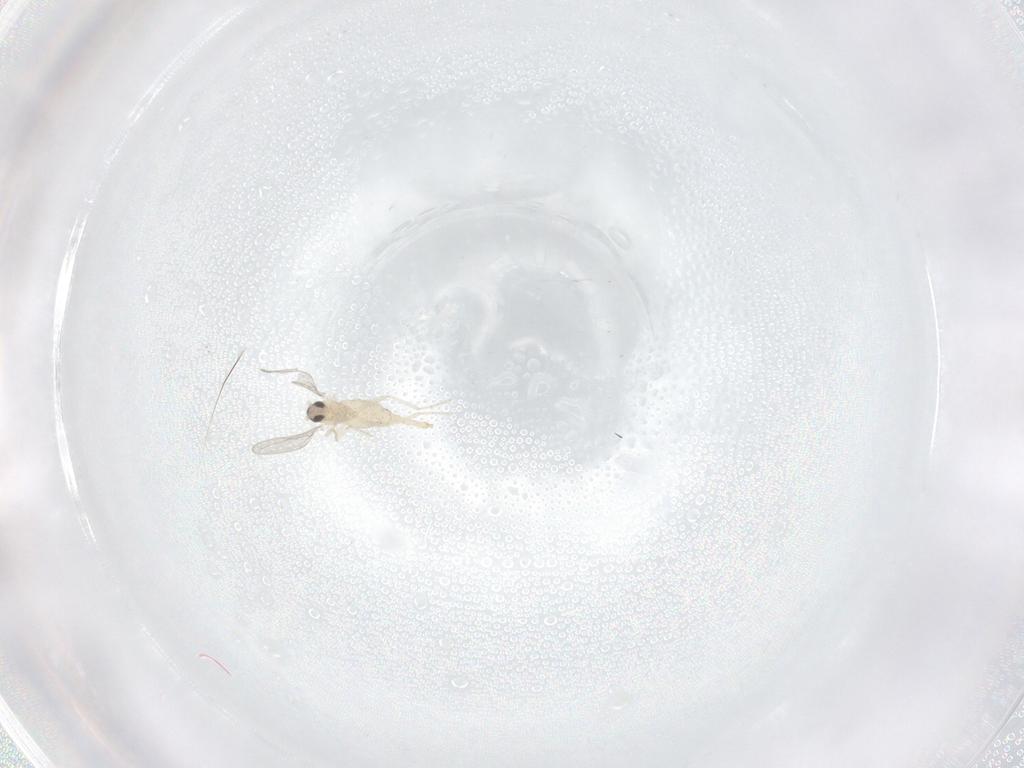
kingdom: Animalia
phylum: Arthropoda
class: Insecta
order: Diptera
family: Cecidomyiidae
